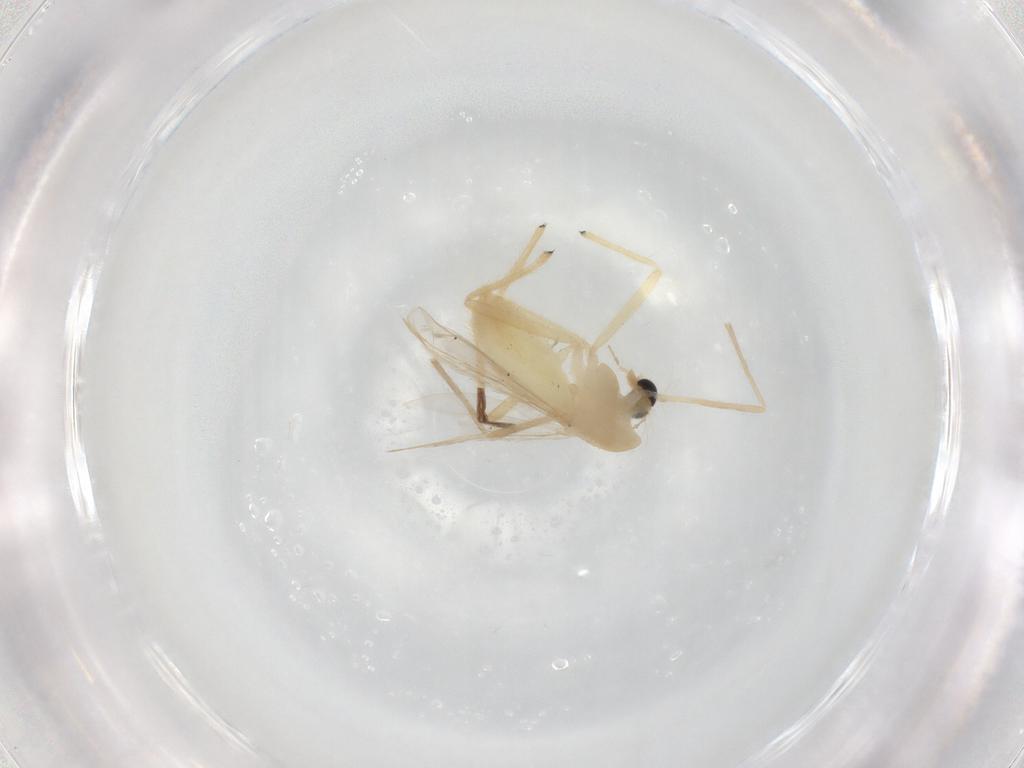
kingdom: Animalia
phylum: Arthropoda
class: Insecta
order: Diptera
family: Chironomidae
